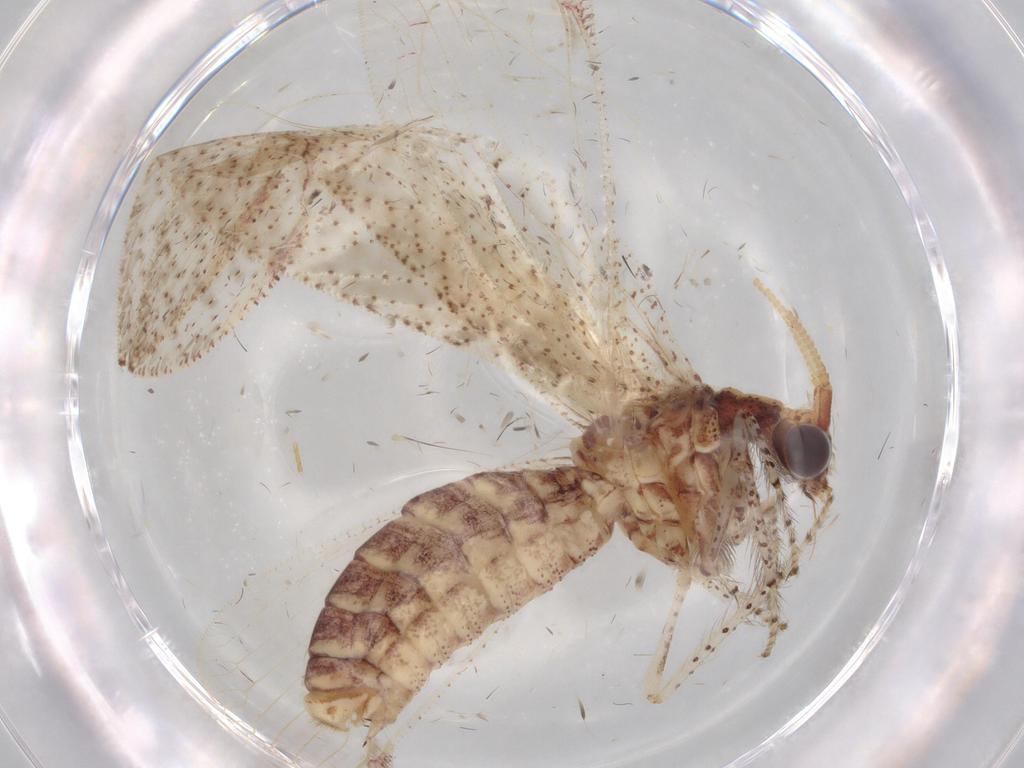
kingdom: Animalia
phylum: Arthropoda
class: Insecta
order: Neuroptera
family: Berothidae
